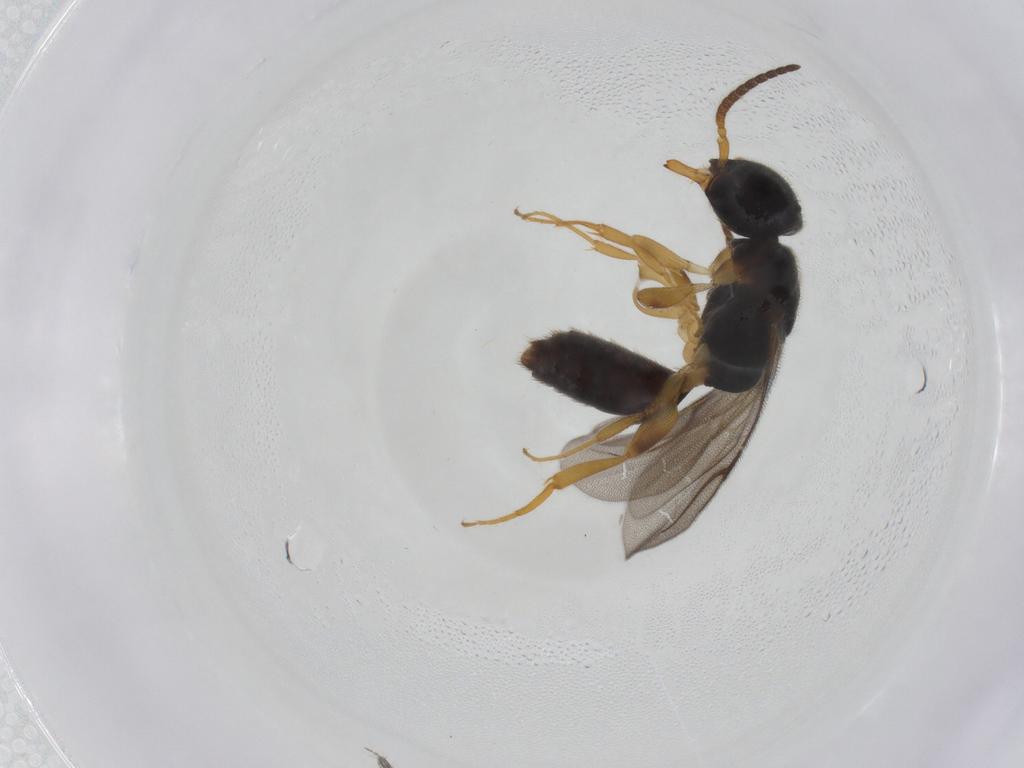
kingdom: Animalia
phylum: Arthropoda
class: Insecta
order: Hymenoptera
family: Bethylidae
